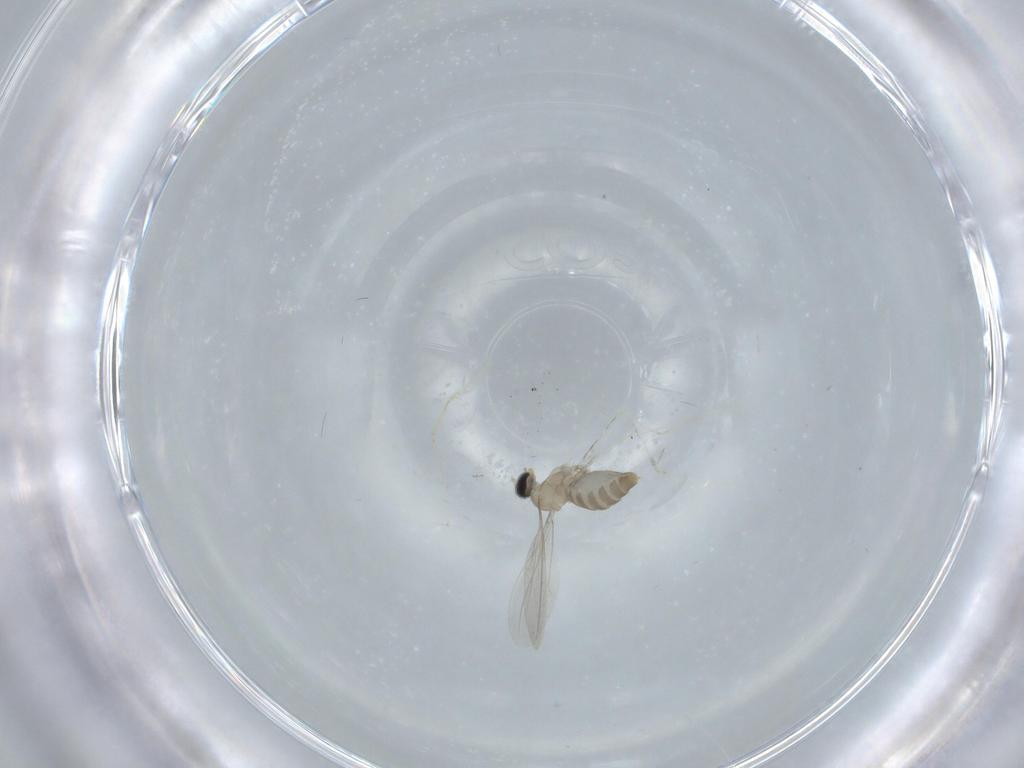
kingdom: Animalia
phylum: Arthropoda
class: Insecta
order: Diptera
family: Cecidomyiidae
